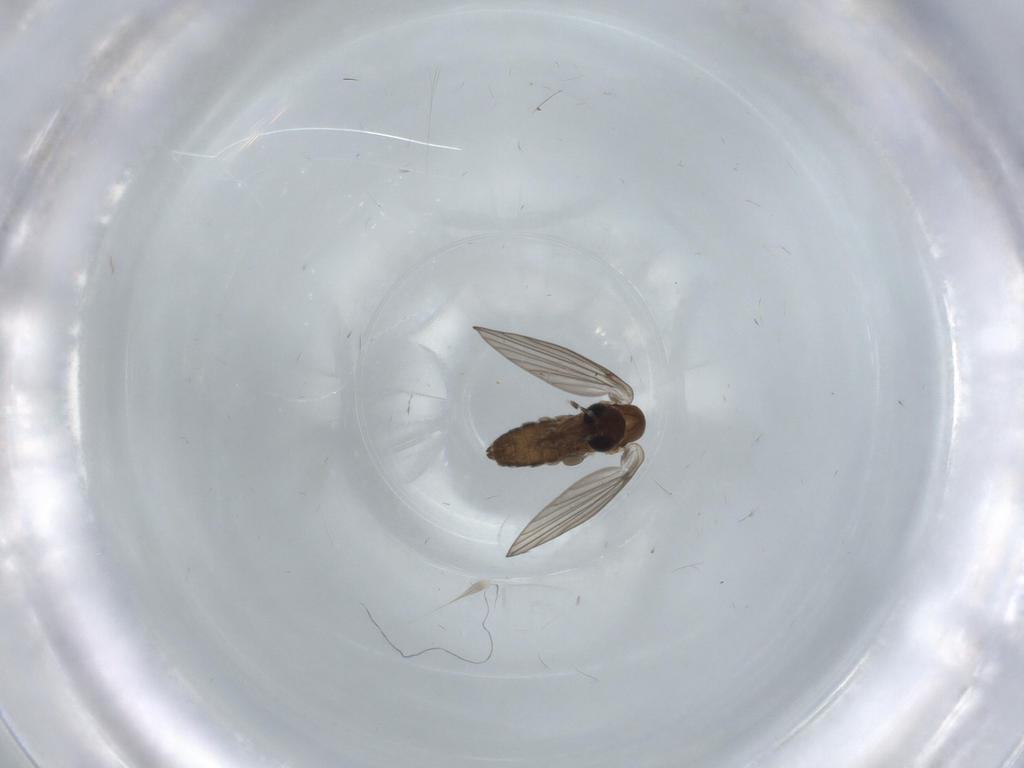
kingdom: Animalia
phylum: Arthropoda
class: Insecta
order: Diptera
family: Psychodidae
